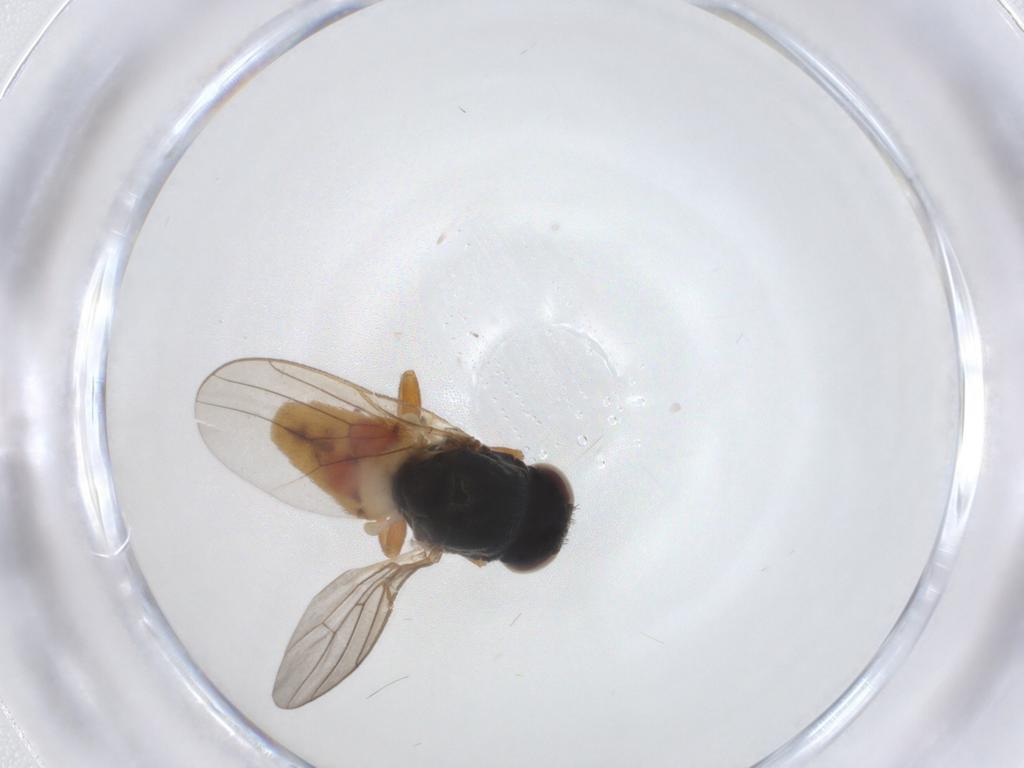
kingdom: Animalia
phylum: Arthropoda
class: Insecta
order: Diptera
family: Chloropidae
